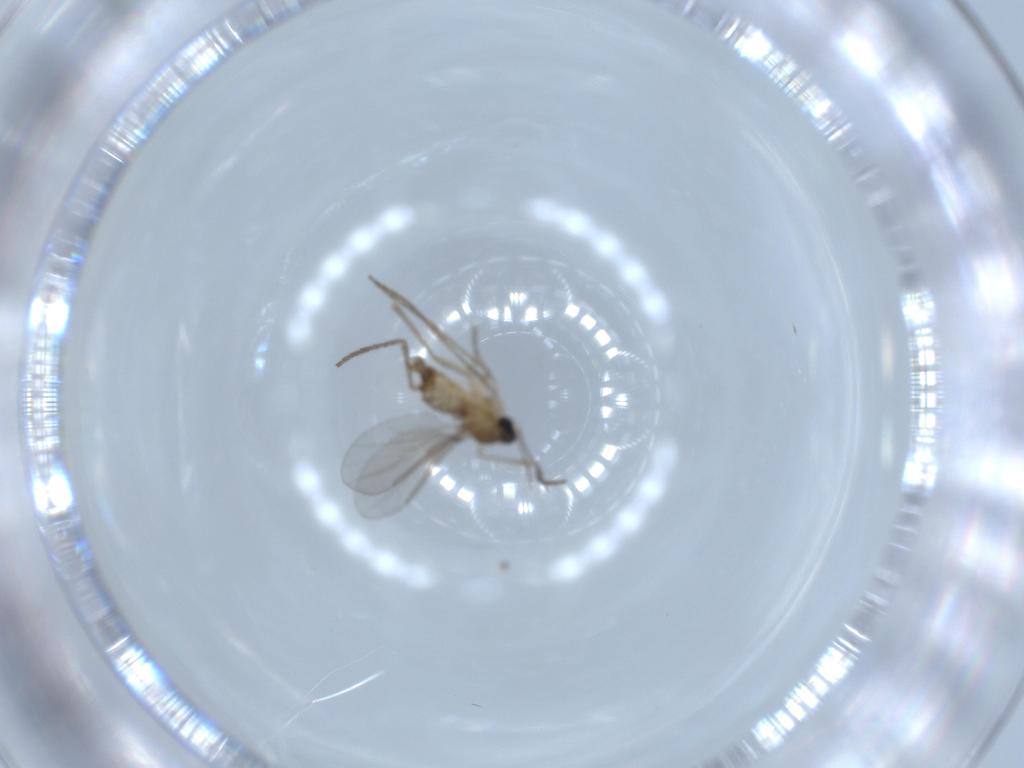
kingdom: Animalia
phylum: Arthropoda
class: Insecta
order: Diptera
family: Cecidomyiidae
